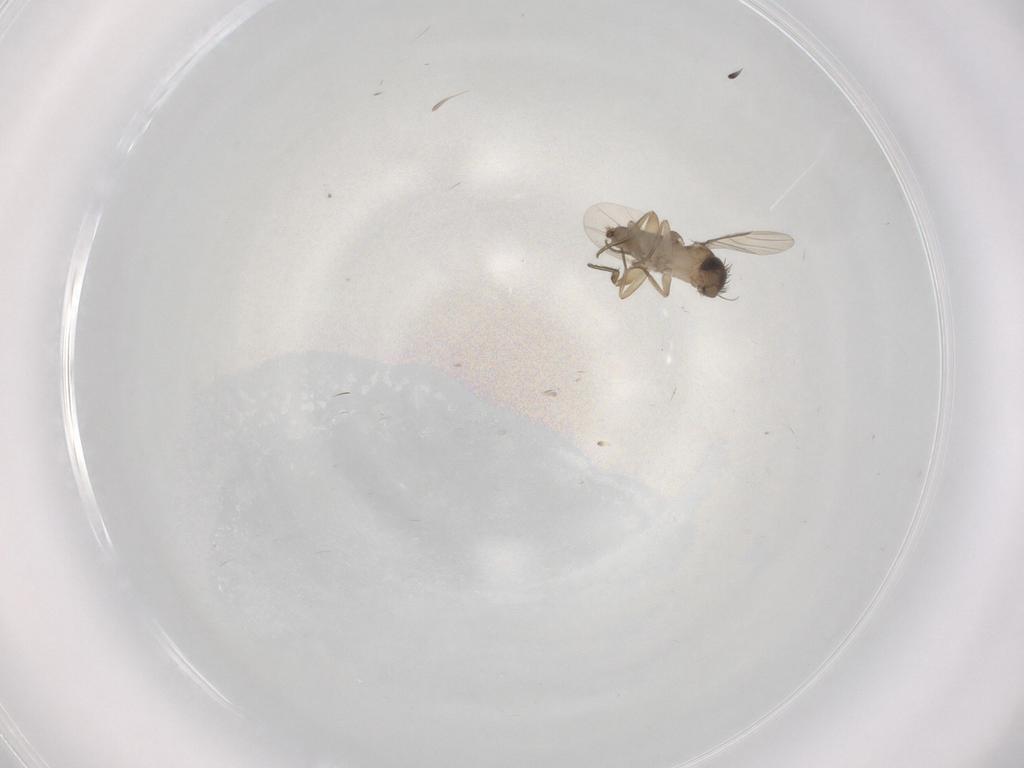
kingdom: Animalia
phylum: Arthropoda
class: Insecta
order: Diptera
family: Phoridae
